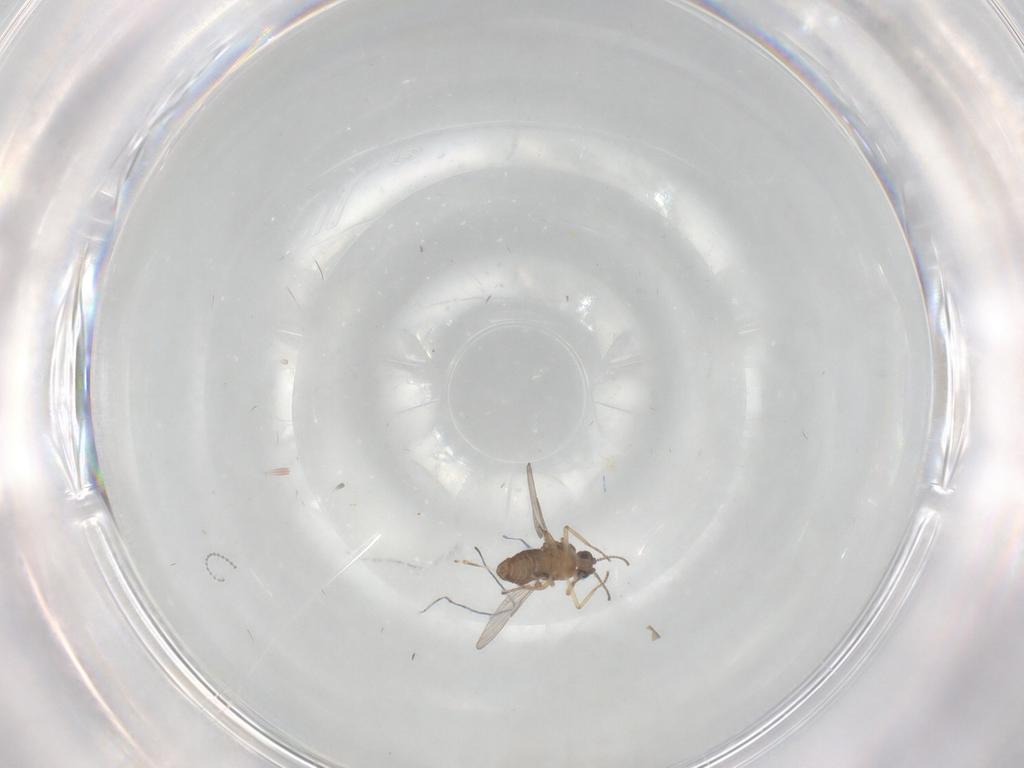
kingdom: Animalia
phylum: Arthropoda
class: Insecta
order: Diptera
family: Cecidomyiidae
